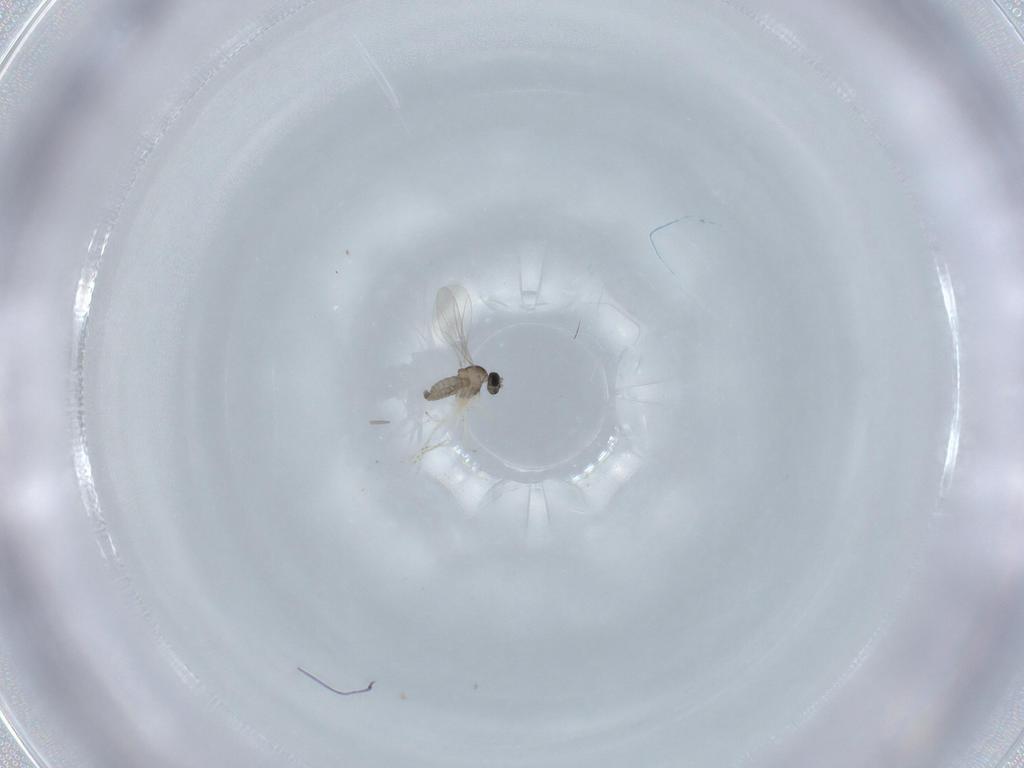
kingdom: Animalia
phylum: Arthropoda
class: Insecta
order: Diptera
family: Cecidomyiidae
